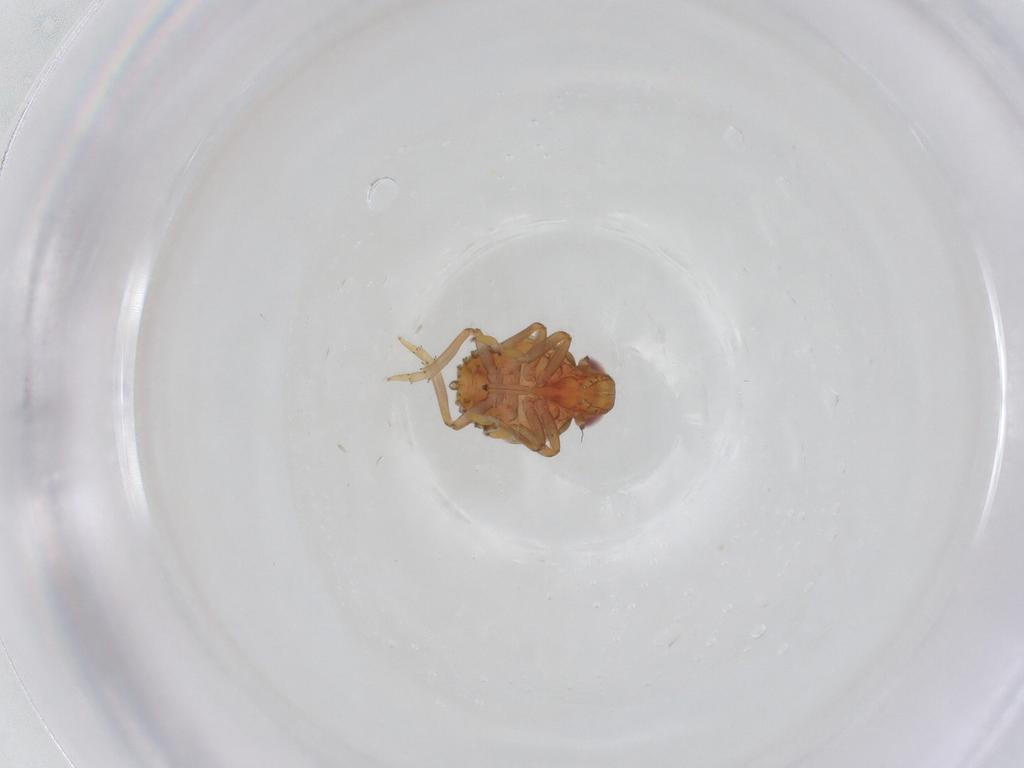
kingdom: Animalia
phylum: Arthropoda
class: Insecta
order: Hemiptera
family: Issidae
